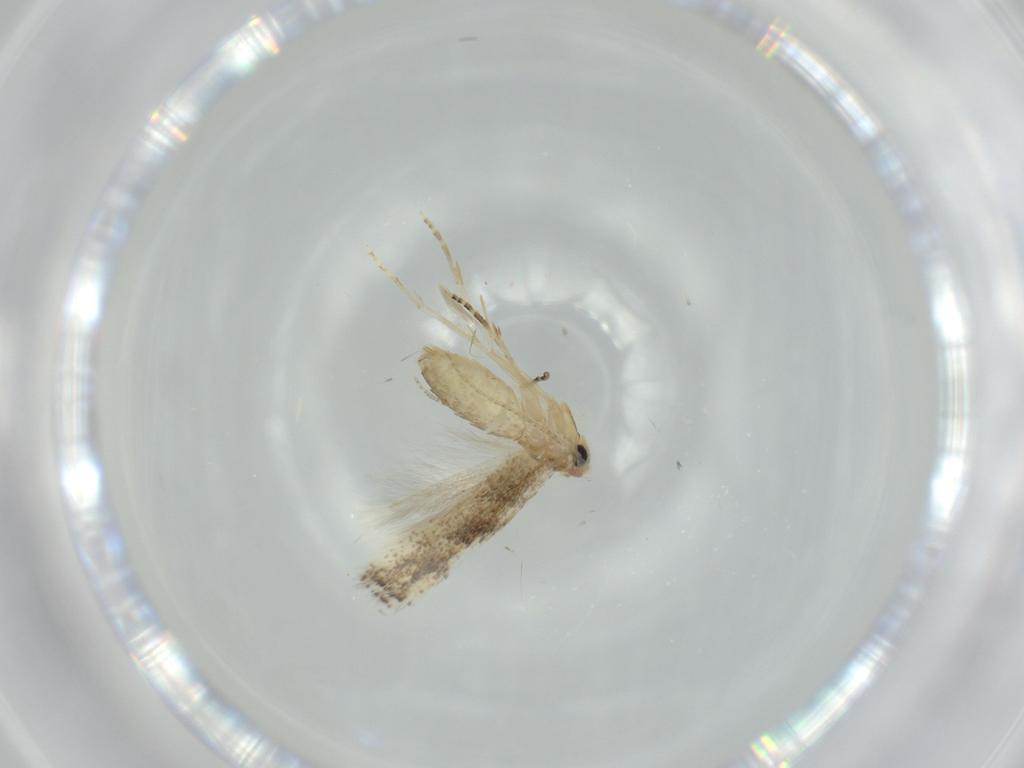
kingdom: Animalia
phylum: Arthropoda
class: Insecta
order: Lepidoptera
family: Bucculatricidae
